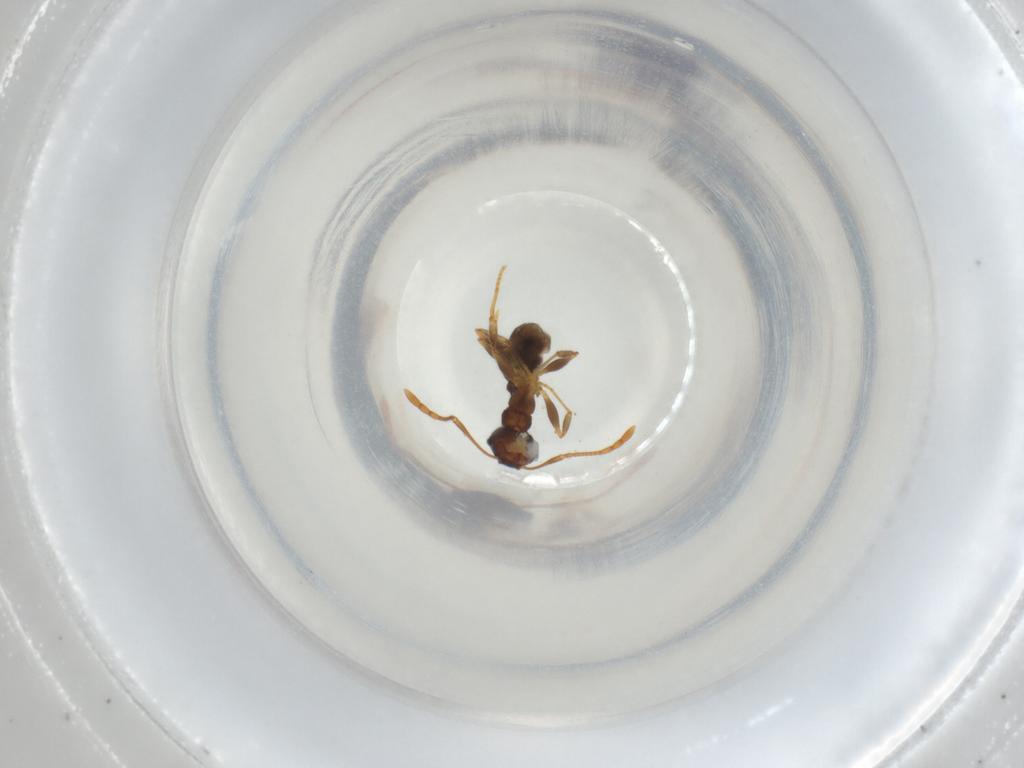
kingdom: Animalia
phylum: Arthropoda
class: Insecta
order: Hymenoptera
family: Formicidae
